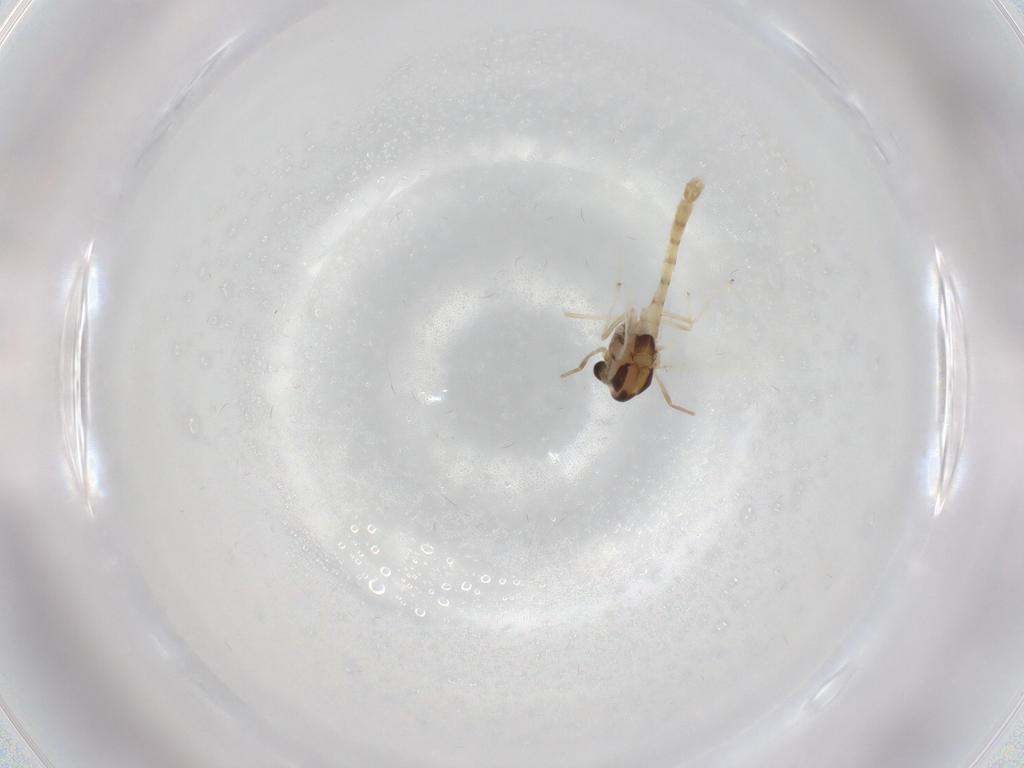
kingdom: Animalia
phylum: Arthropoda
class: Insecta
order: Diptera
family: Chironomidae
